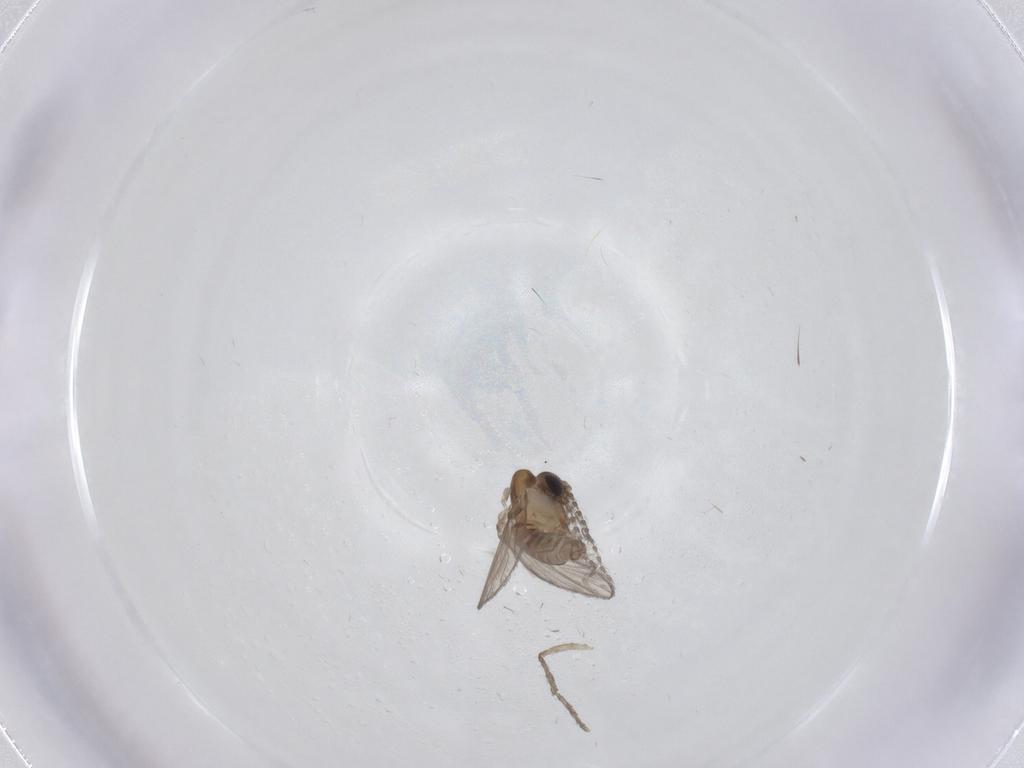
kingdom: Animalia
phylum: Arthropoda
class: Insecta
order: Diptera
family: Psychodidae
